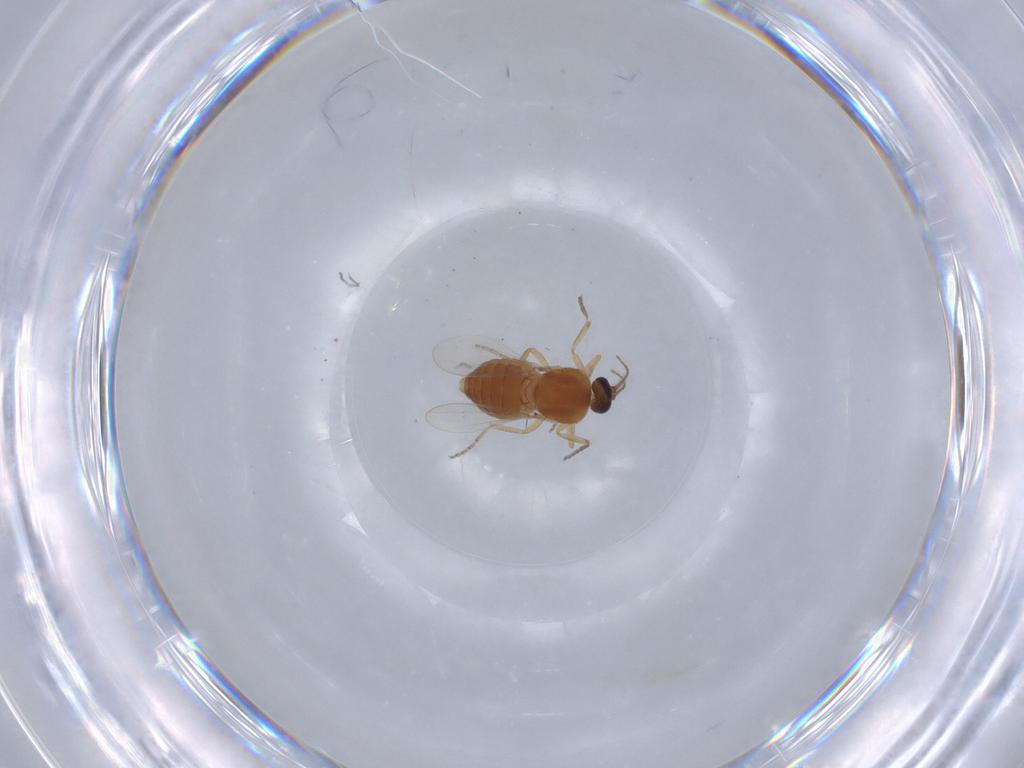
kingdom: Animalia
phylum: Arthropoda
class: Insecta
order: Diptera
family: Ceratopogonidae
